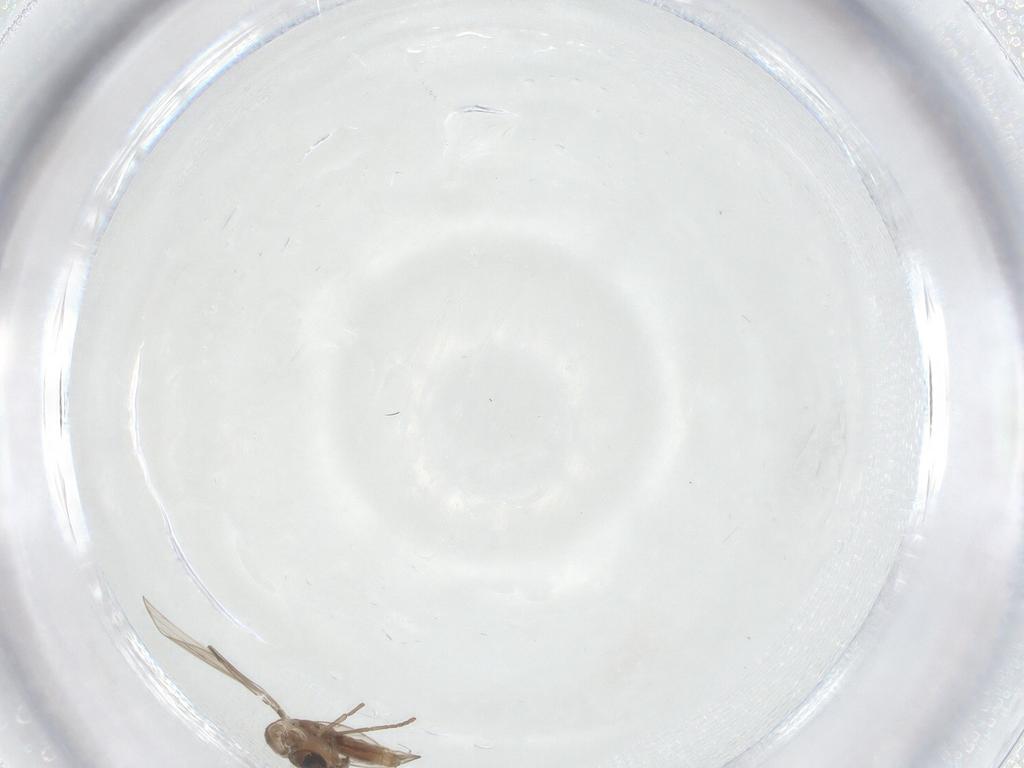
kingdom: Animalia
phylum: Arthropoda
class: Insecta
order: Diptera
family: Psychodidae
